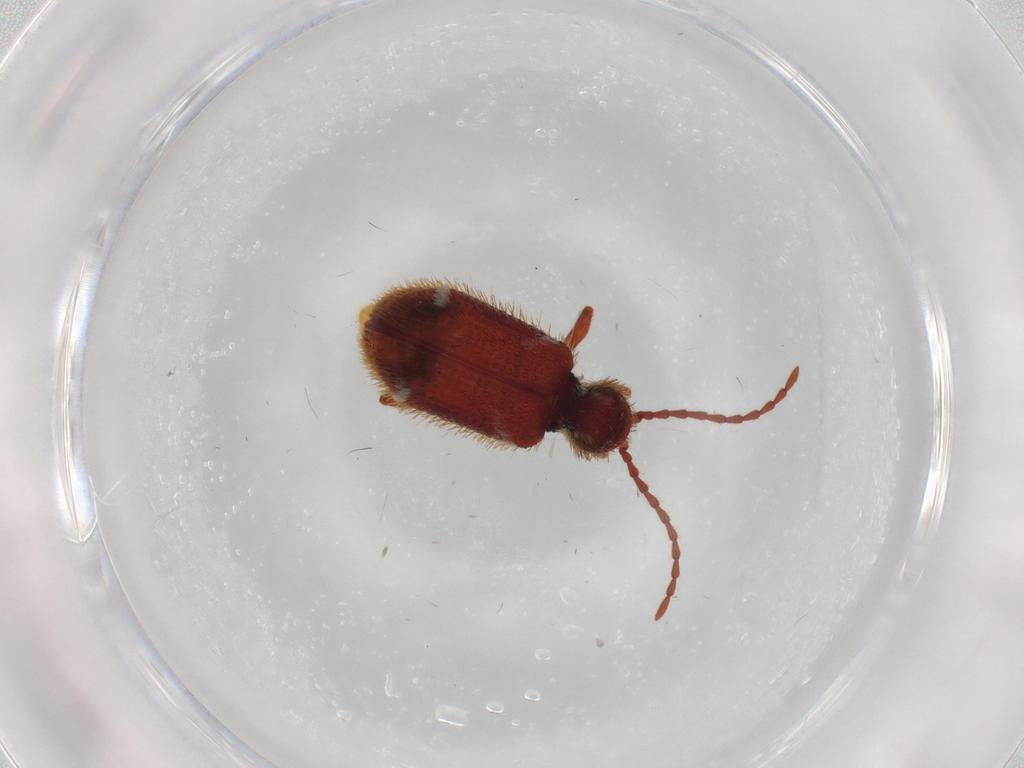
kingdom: Animalia
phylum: Arthropoda
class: Insecta
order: Coleoptera
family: Ptinidae
